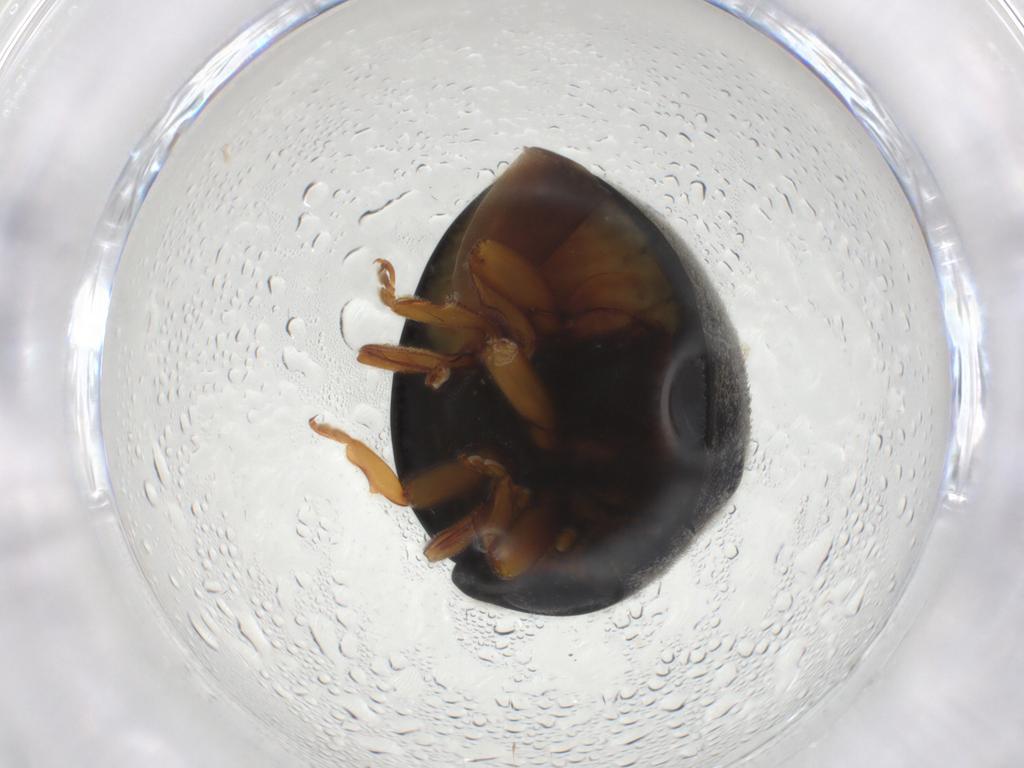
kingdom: Animalia
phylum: Arthropoda
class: Insecta
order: Coleoptera
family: Coccinellidae
